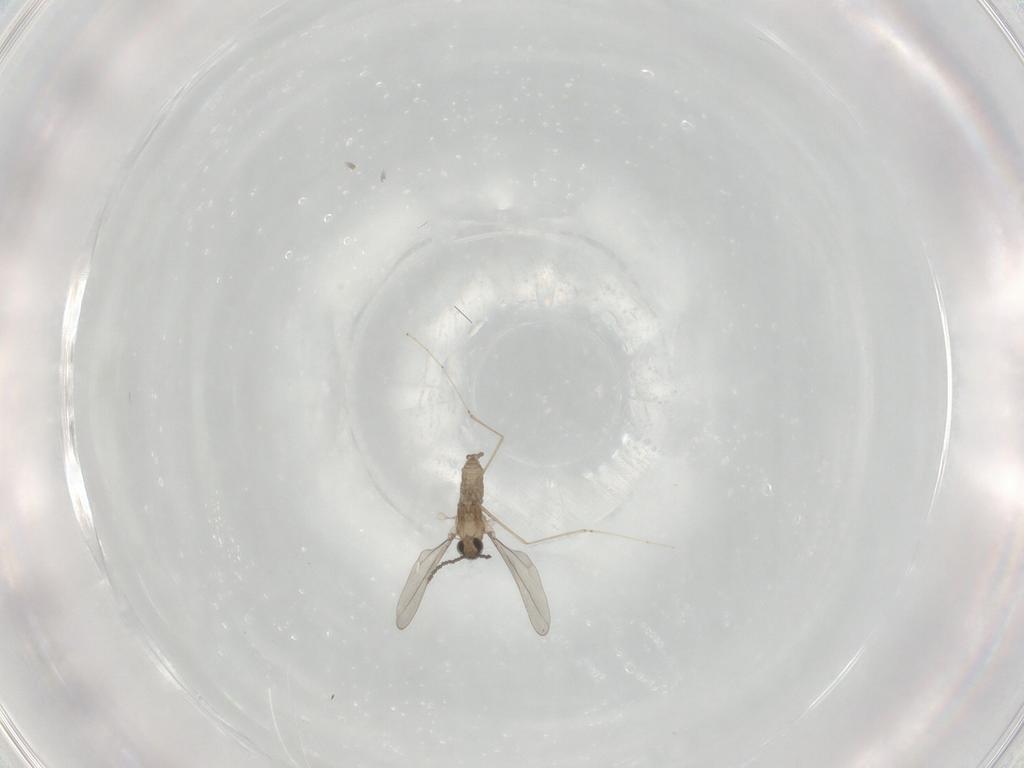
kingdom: Animalia
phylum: Arthropoda
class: Insecta
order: Diptera
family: Cecidomyiidae
